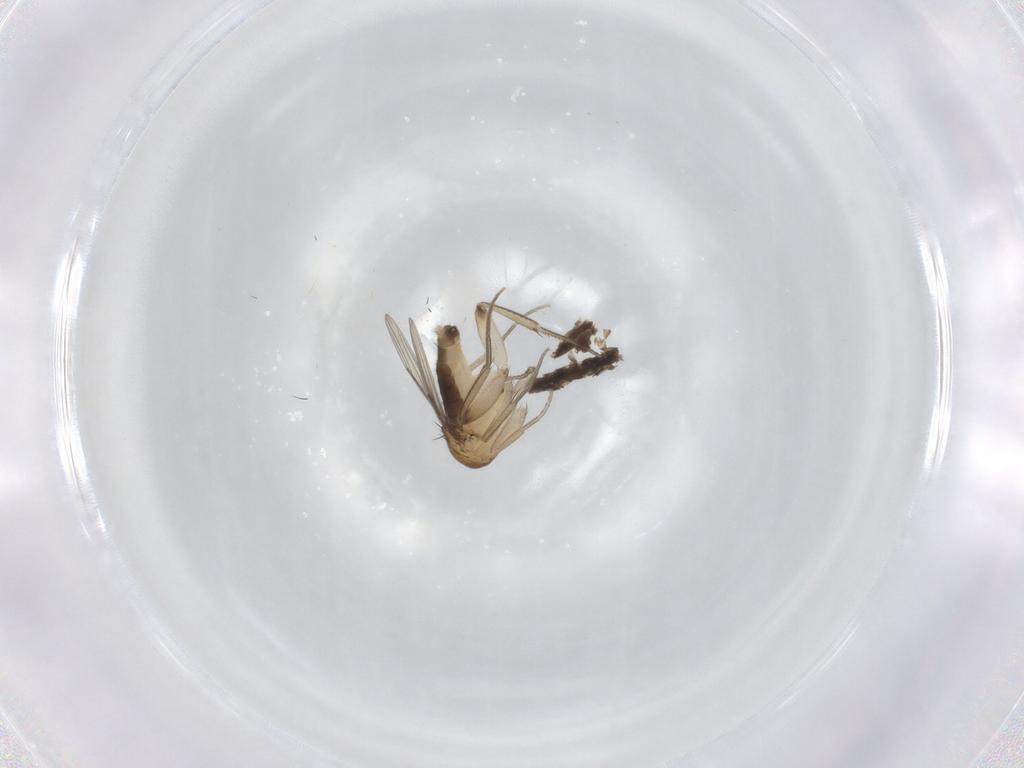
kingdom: Animalia
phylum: Arthropoda
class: Insecta
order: Diptera
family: Phoridae
